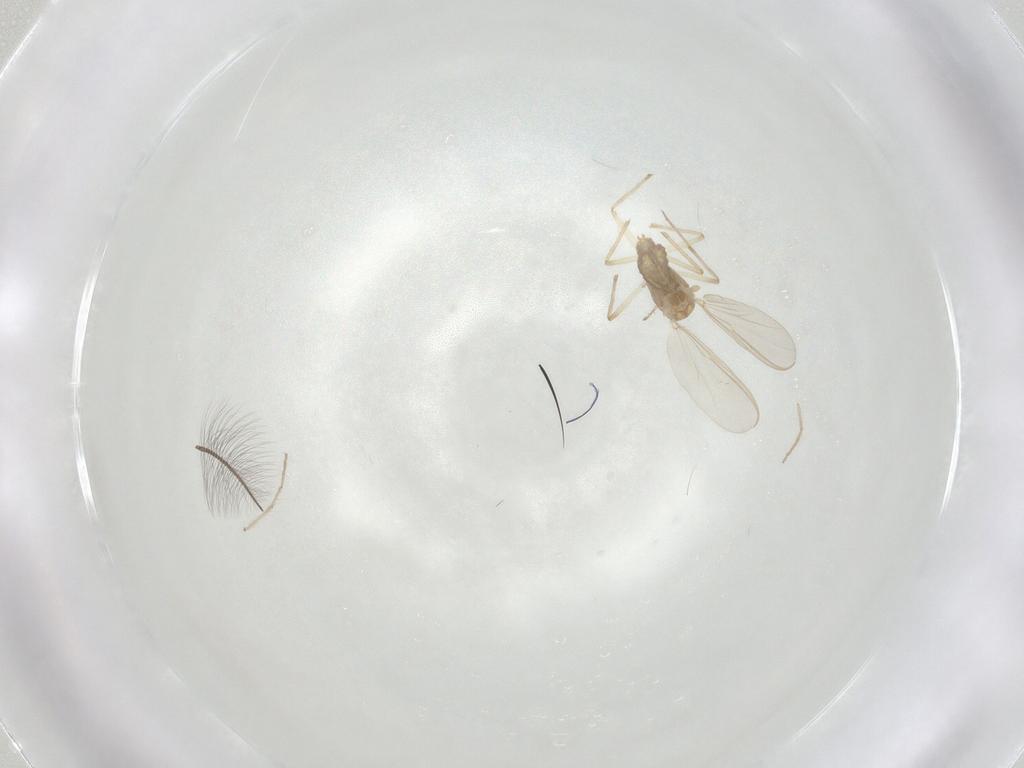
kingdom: Animalia
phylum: Arthropoda
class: Insecta
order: Diptera
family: Chironomidae
